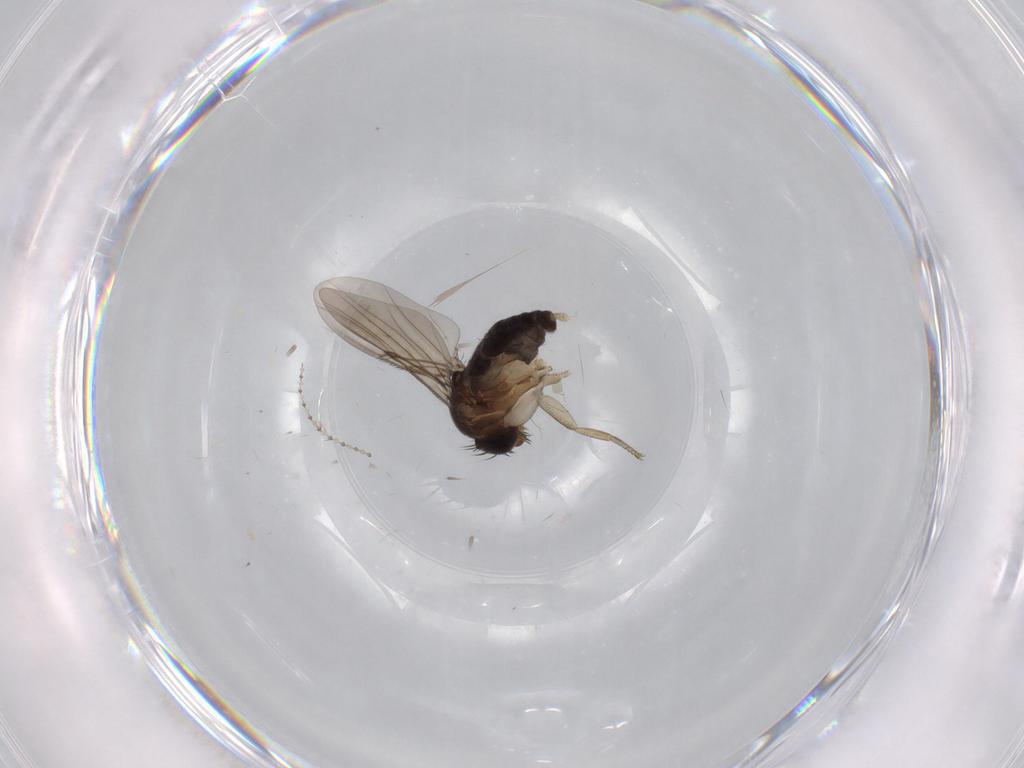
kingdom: Animalia
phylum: Arthropoda
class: Insecta
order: Diptera
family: Phoridae
